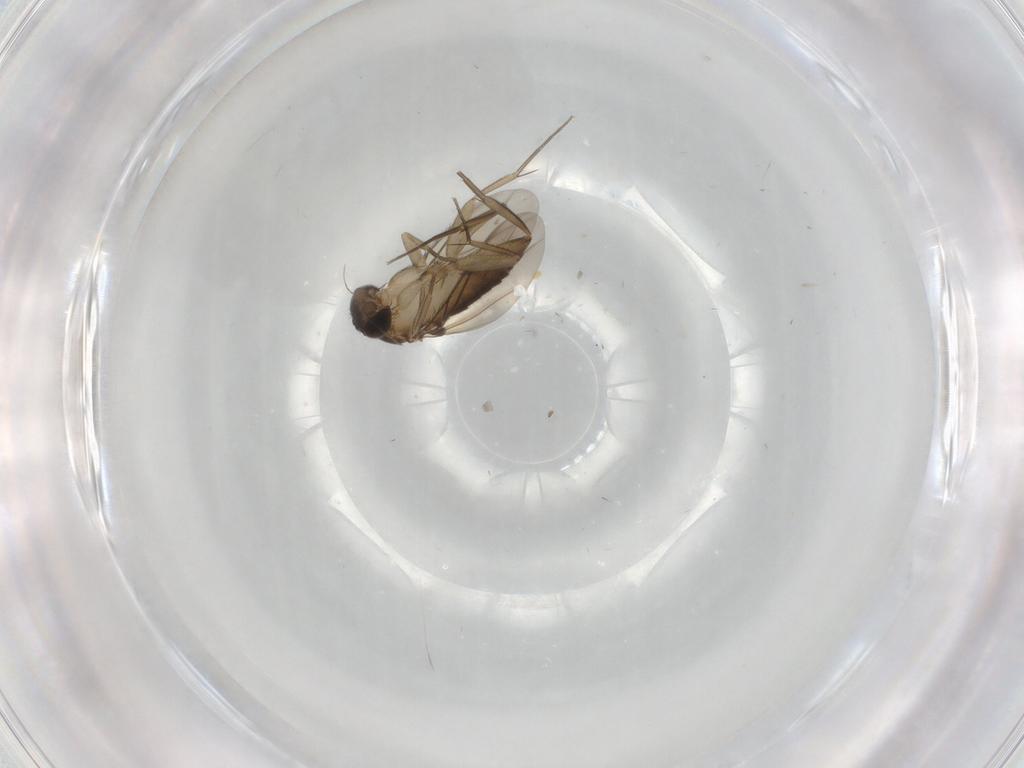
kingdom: Animalia
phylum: Arthropoda
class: Insecta
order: Diptera
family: Phoridae
